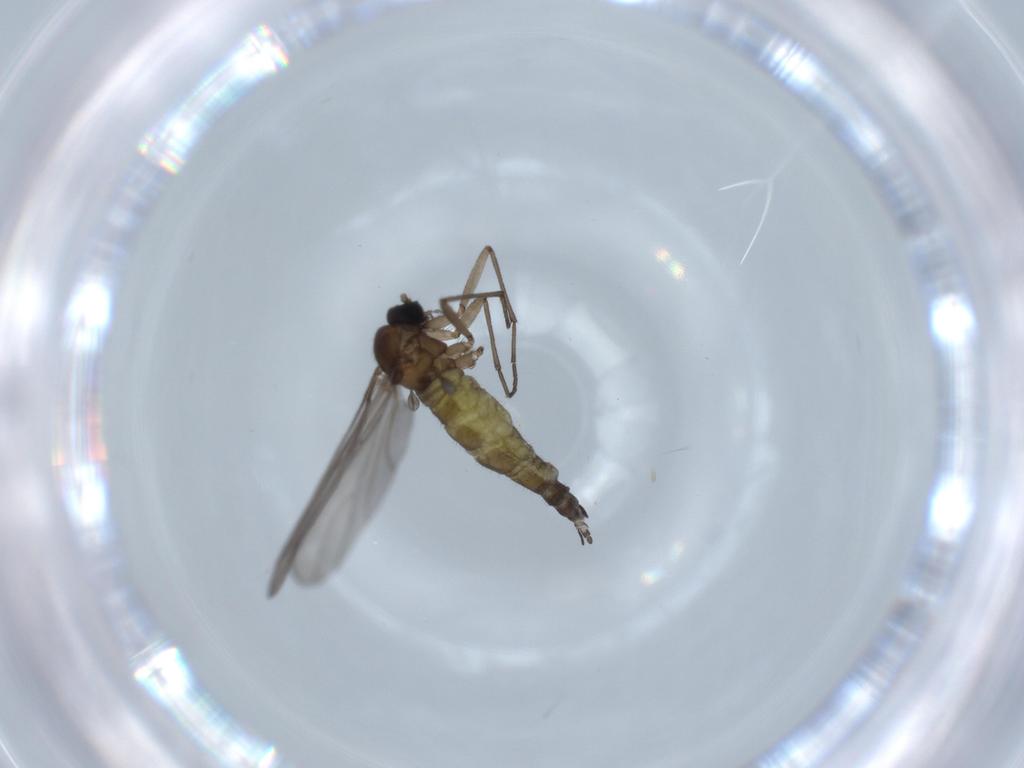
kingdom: Animalia
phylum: Arthropoda
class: Insecta
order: Diptera
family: Sciaridae
